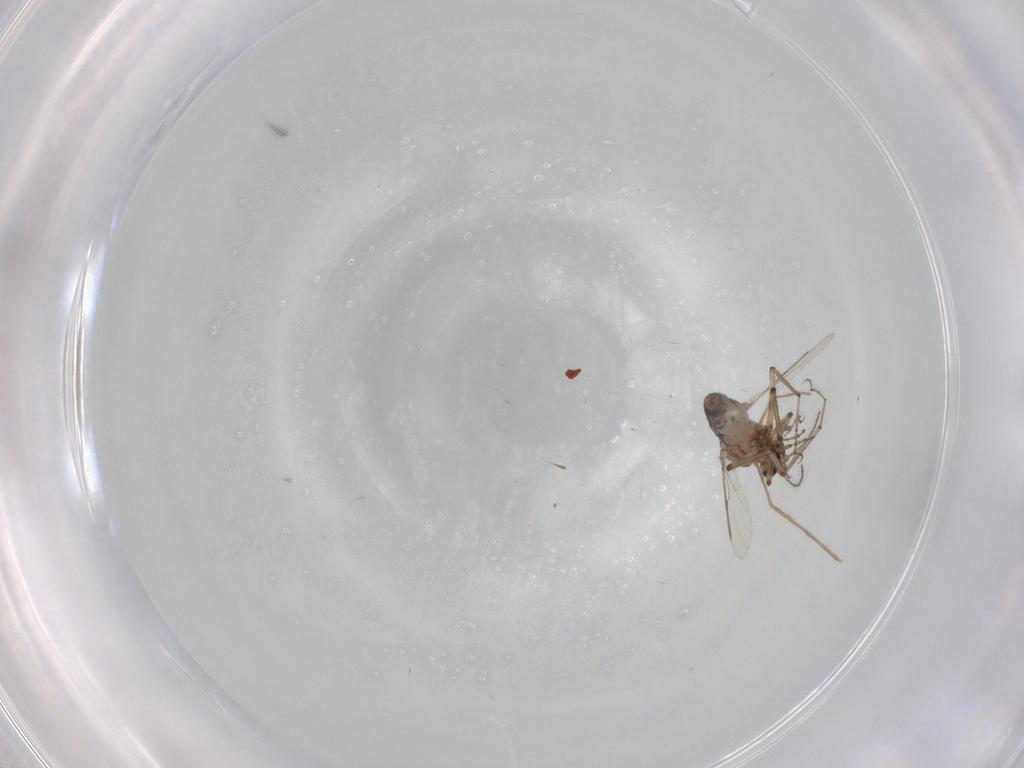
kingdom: Animalia
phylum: Arthropoda
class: Insecta
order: Diptera
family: Ceratopogonidae
